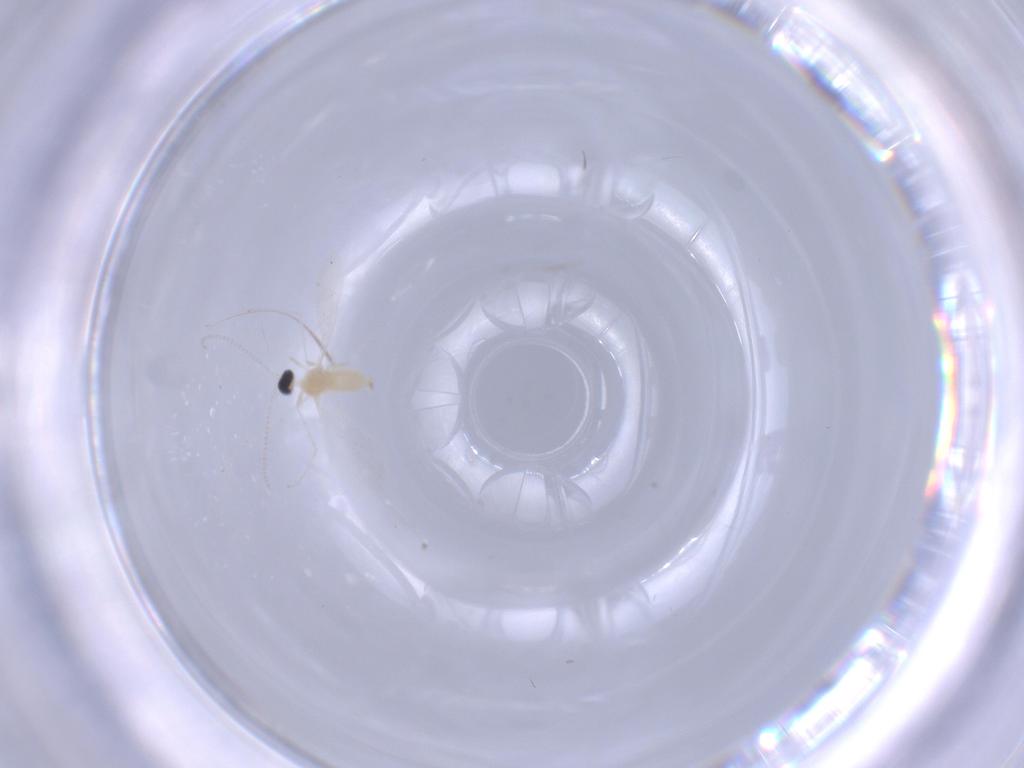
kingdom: Animalia
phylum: Arthropoda
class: Insecta
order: Diptera
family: Cecidomyiidae
